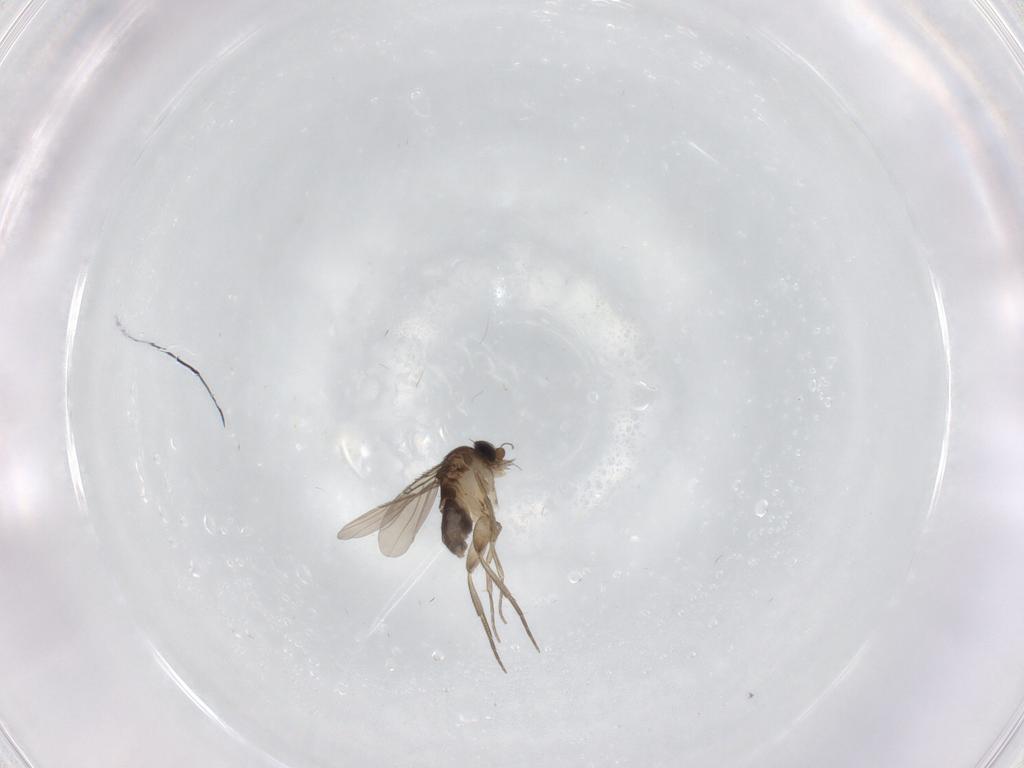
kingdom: Animalia
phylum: Arthropoda
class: Insecta
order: Diptera
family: Phoridae
